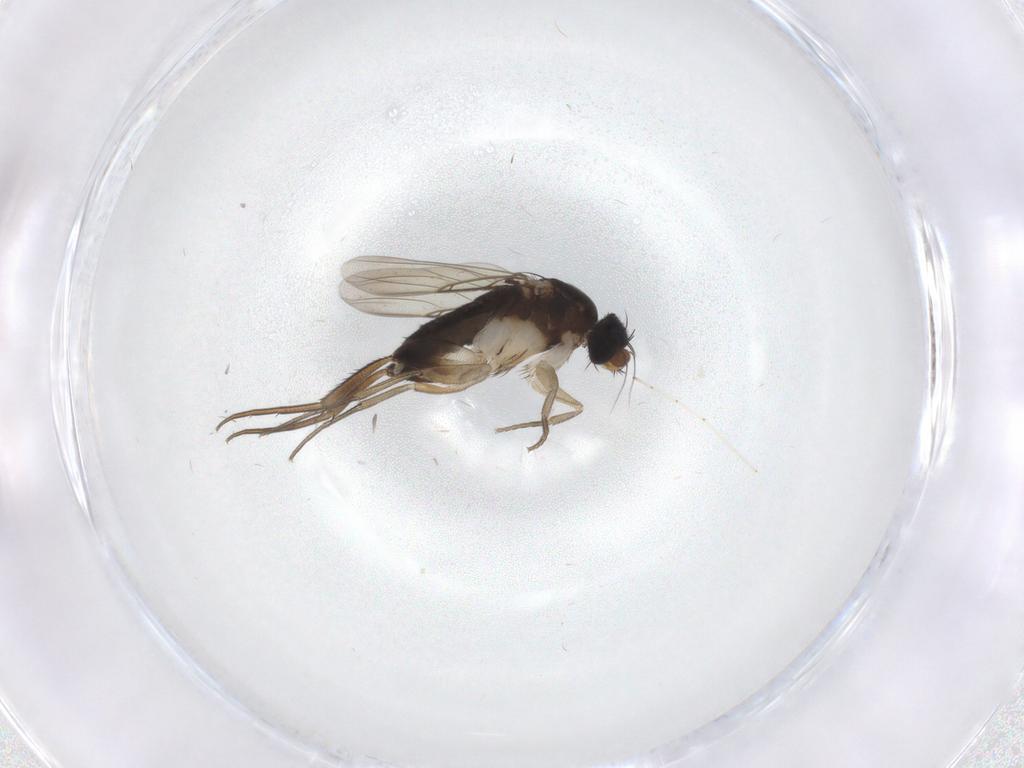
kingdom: Animalia
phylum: Arthropoda
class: Insecta
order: Diptera
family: Phoridae
